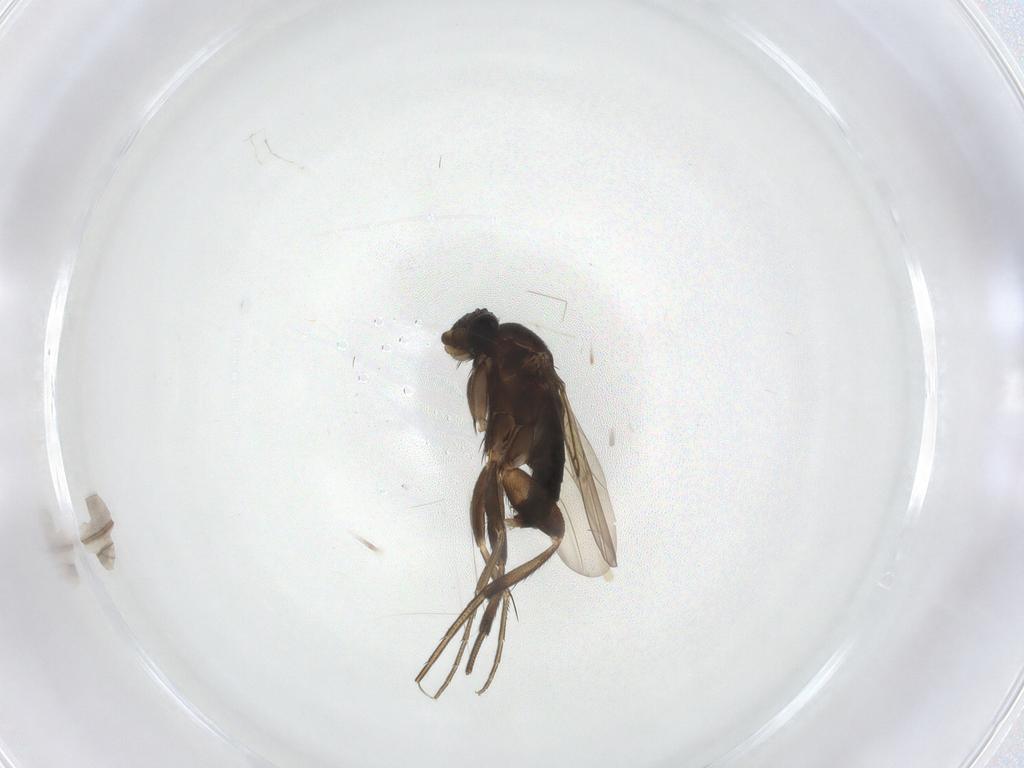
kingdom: Animalia
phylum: Arthropoda
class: Insecta
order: Diptera
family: Phoridae
